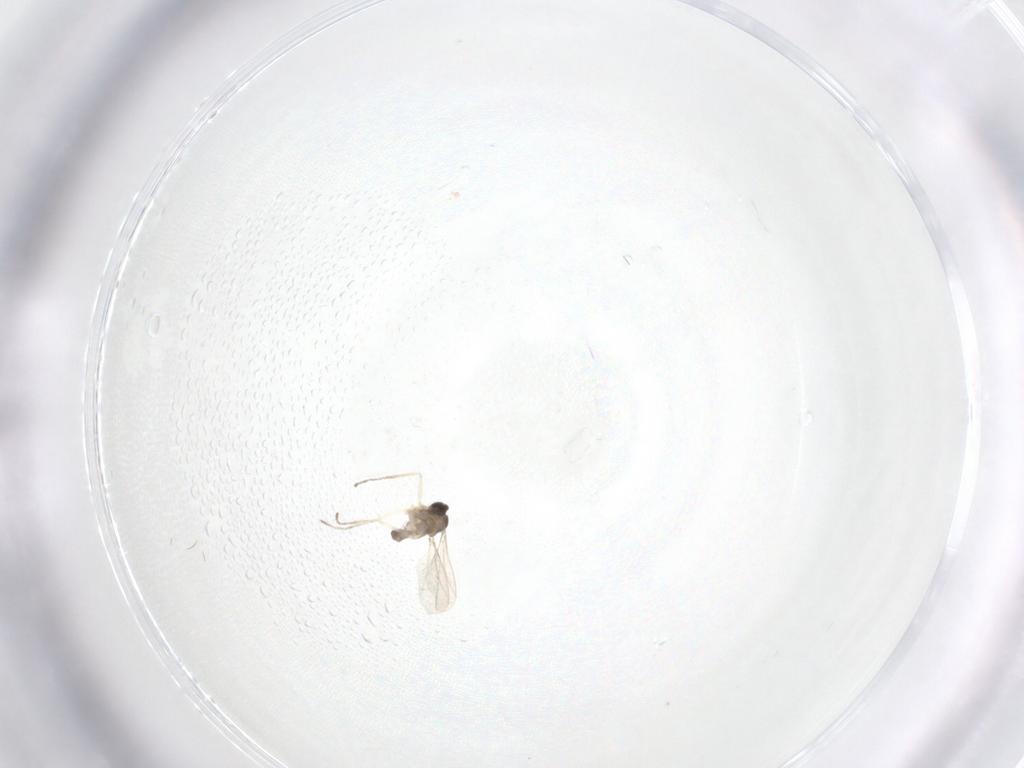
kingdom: Animalia
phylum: Arthropoda
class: Insecta
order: Diptera
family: Cecidomyiidae
